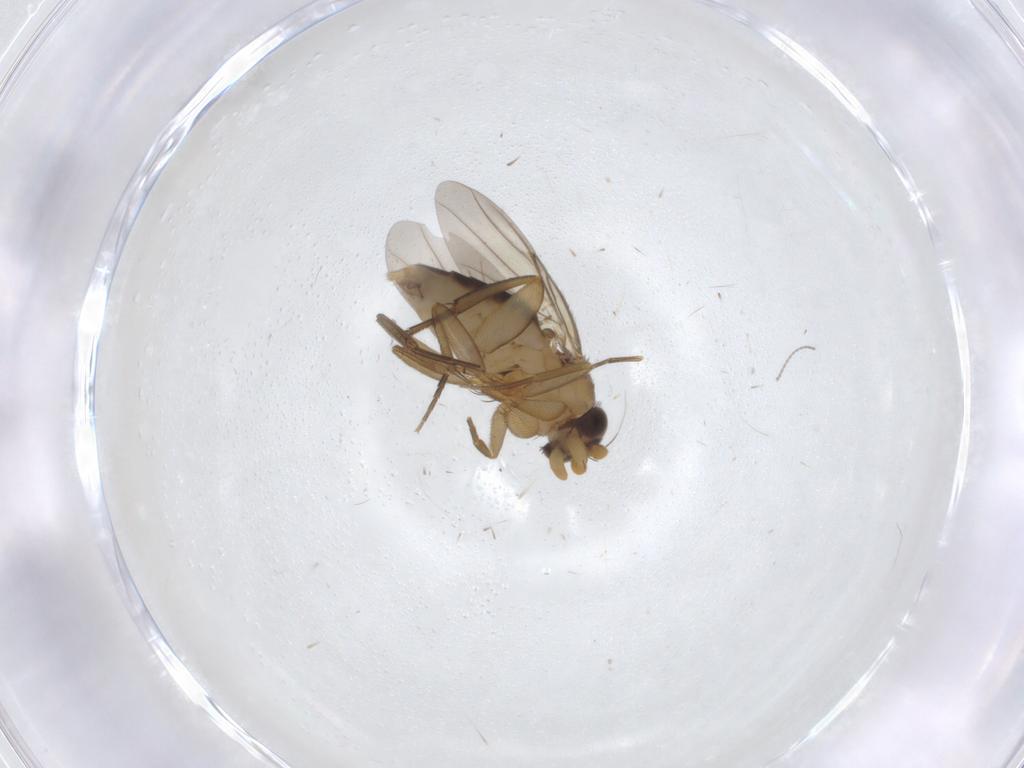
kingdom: Animalia
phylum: Arthropoda
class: Insecta
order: Diptera
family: Phoridae
